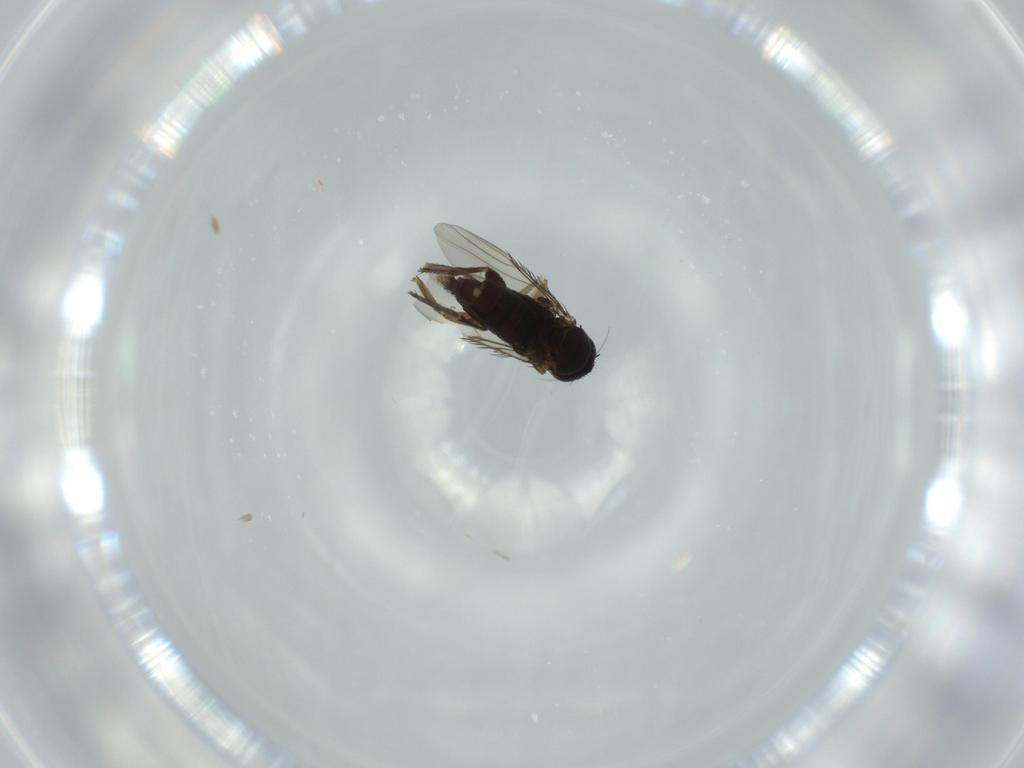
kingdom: Animalia
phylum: Arthropoda
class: Insecta
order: Diptera
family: Phoridae
